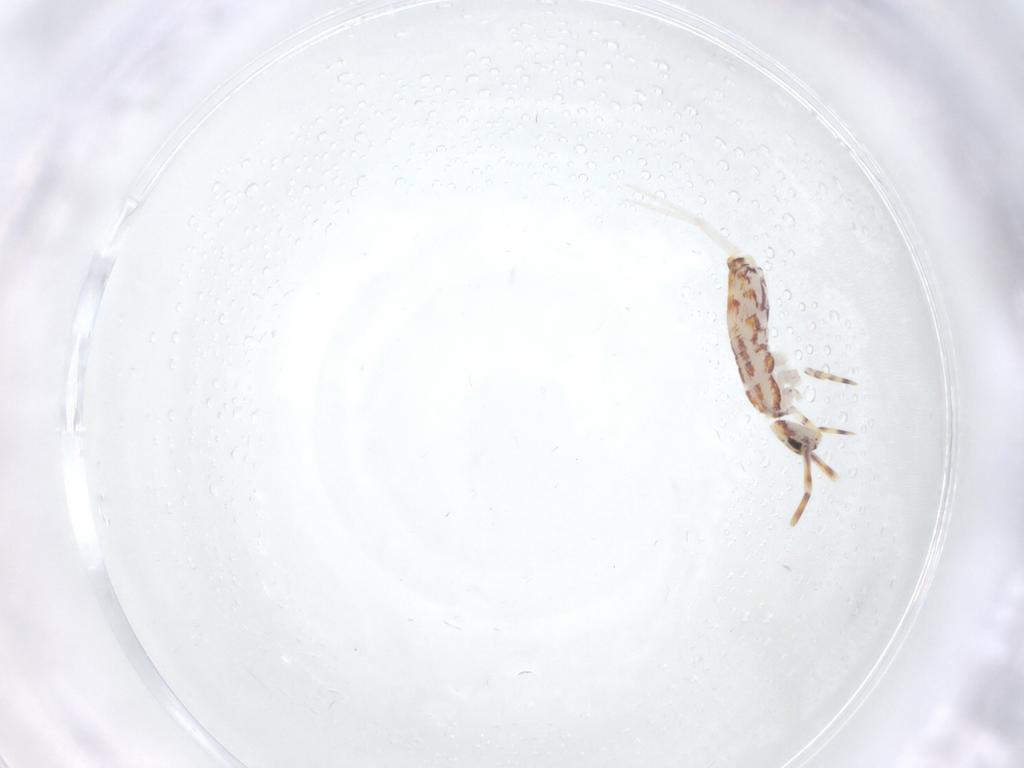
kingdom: Animalia
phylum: Arthropoda
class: Collembola
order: Entomobryomorpha
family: Entomobryidae
